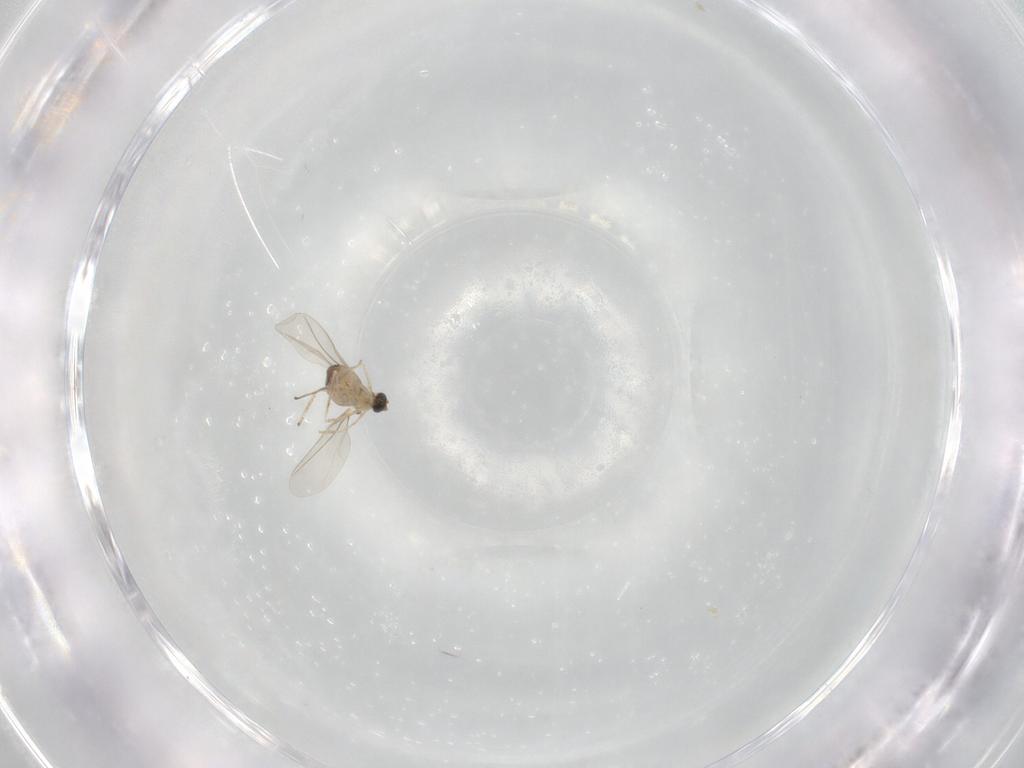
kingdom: Animalia
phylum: Arthropoda
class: Insecta
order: Diptera
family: Cecidomyiidae
